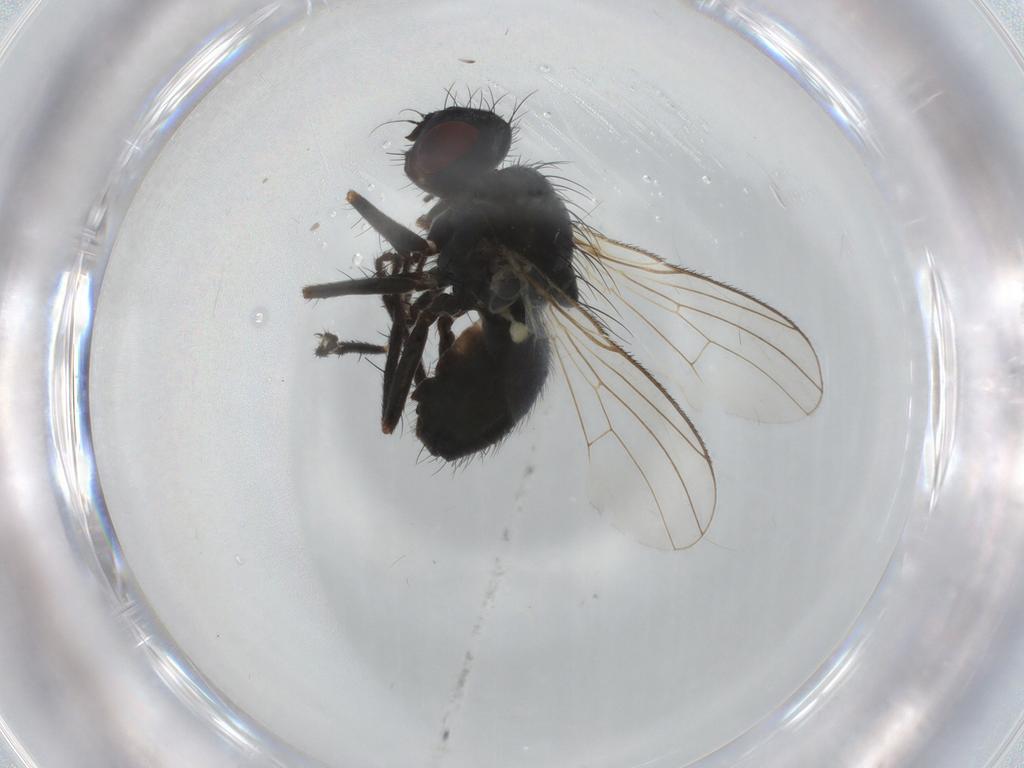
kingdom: Animalia
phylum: Arthropoda
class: Insecta
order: Diptera
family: Muscidae
